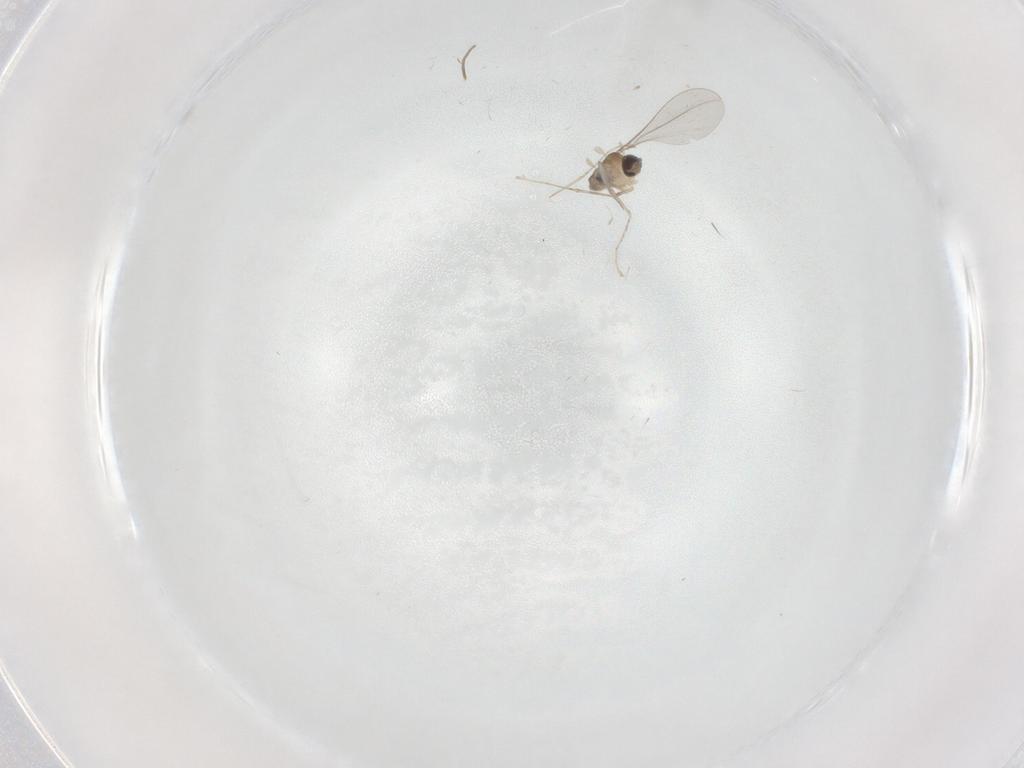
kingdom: Animalia
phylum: Arthropoda
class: Insecta
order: Diptera
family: Cecidomyiidae
